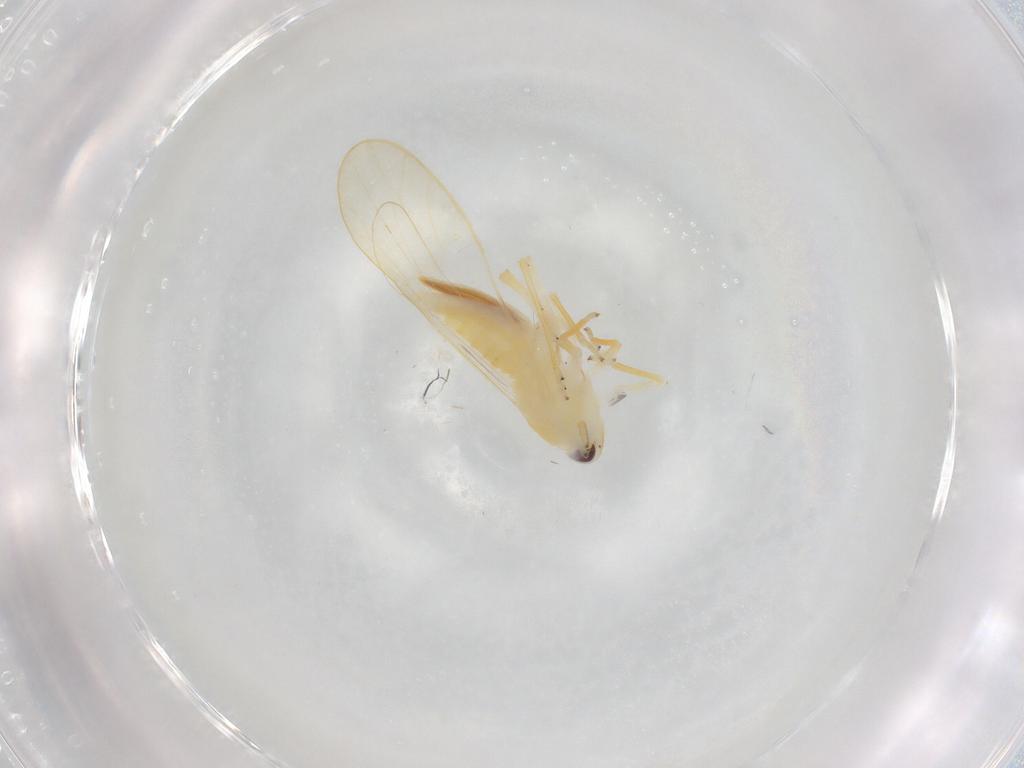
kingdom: Animalia
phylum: Arthropoda
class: Insecta
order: Hemiptera
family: Delphacidae
